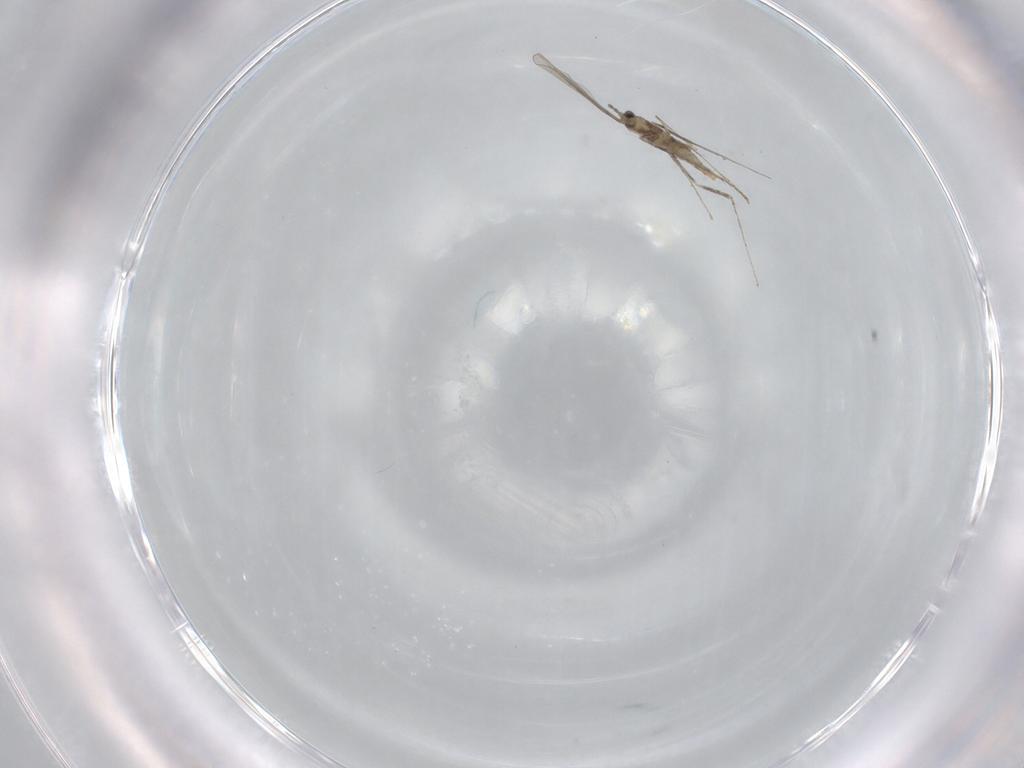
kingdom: Animalia
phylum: Arthropoda
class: Insecta
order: Diptera
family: Cecidomyiidae
